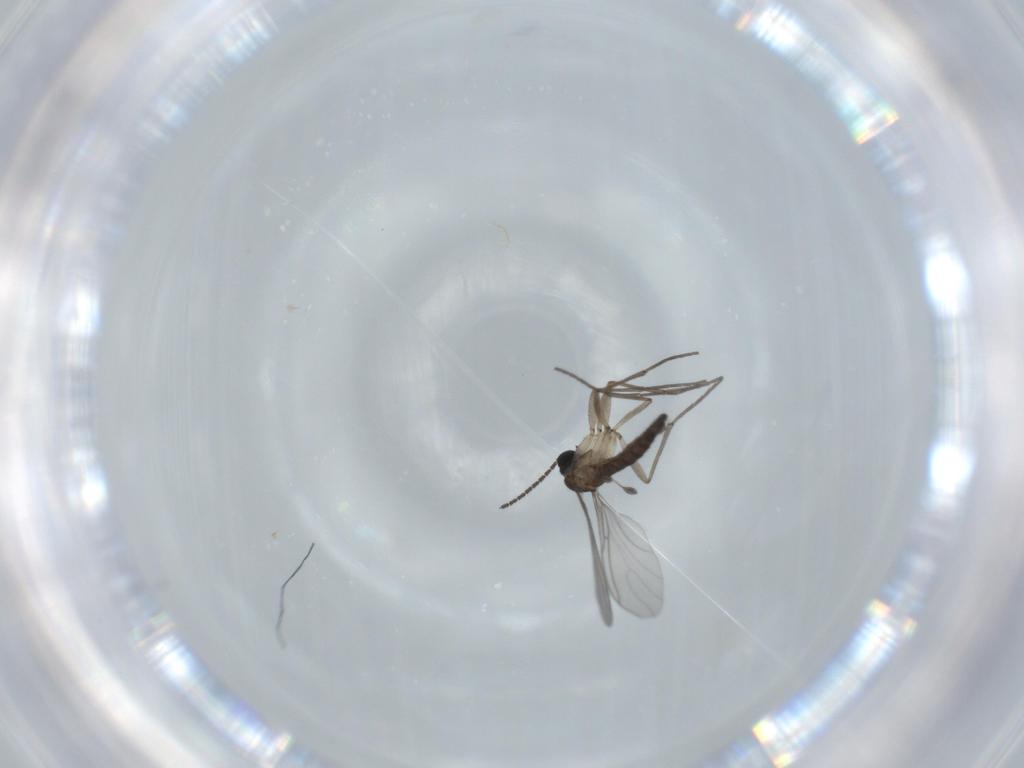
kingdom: Animalia
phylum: Arthropoda
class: Insecta
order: Diptera
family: Sciaridae
